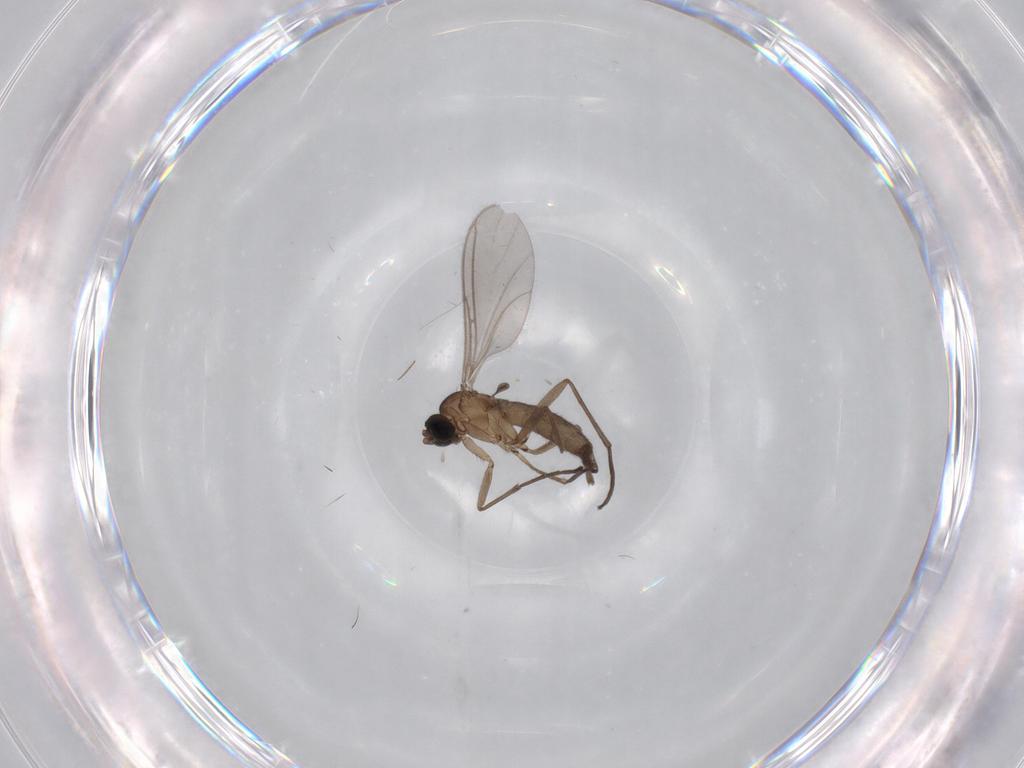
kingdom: Animalia
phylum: Arthropoda
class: Insecta
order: Diptera
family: Sciaridae
